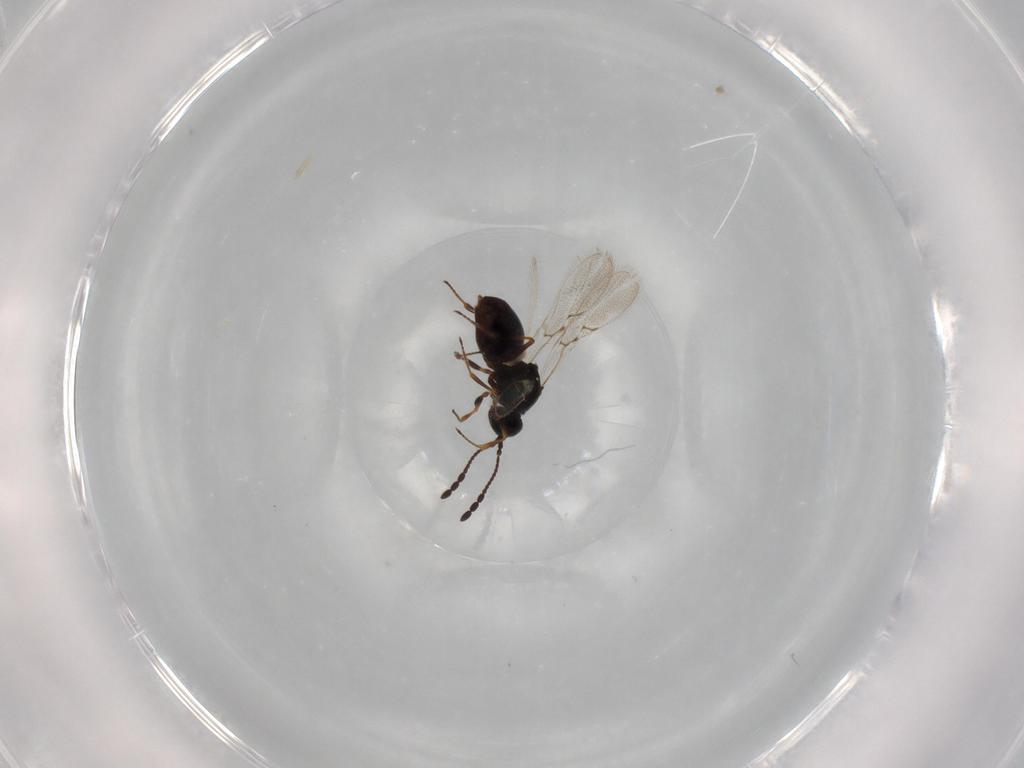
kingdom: Animalia
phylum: Arthropoda
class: Insecta
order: Hymenoptera
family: Figitidae
